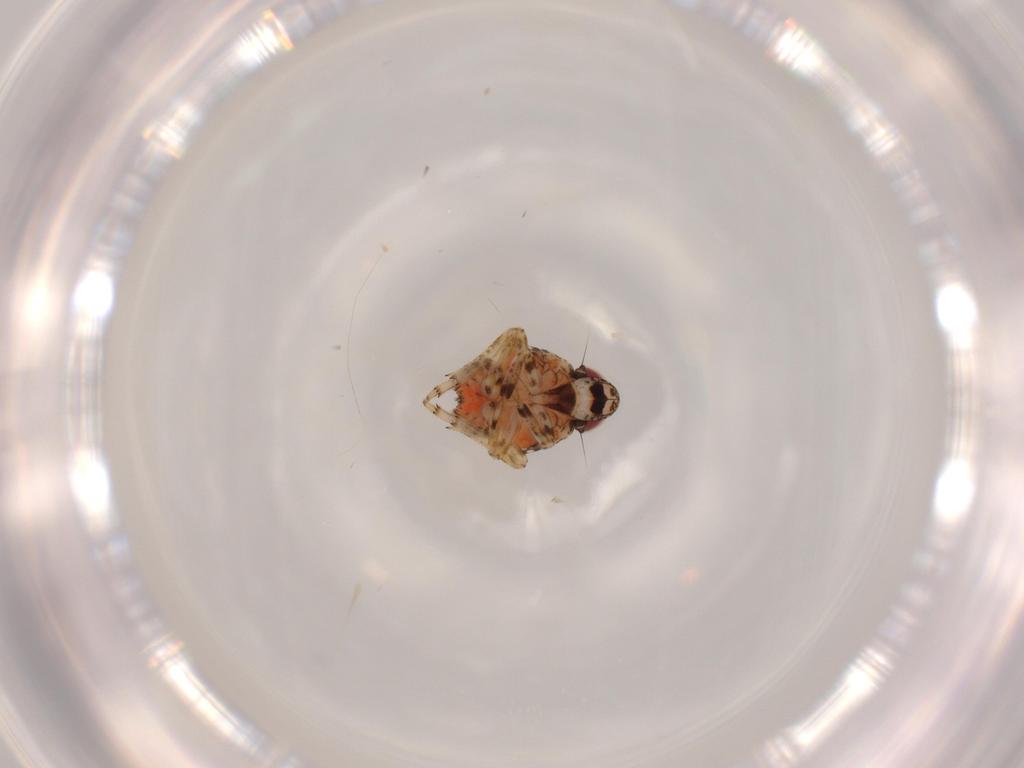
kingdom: Animalia
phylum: Arthropoda
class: Insecta
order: Hemiptera
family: Issidae
